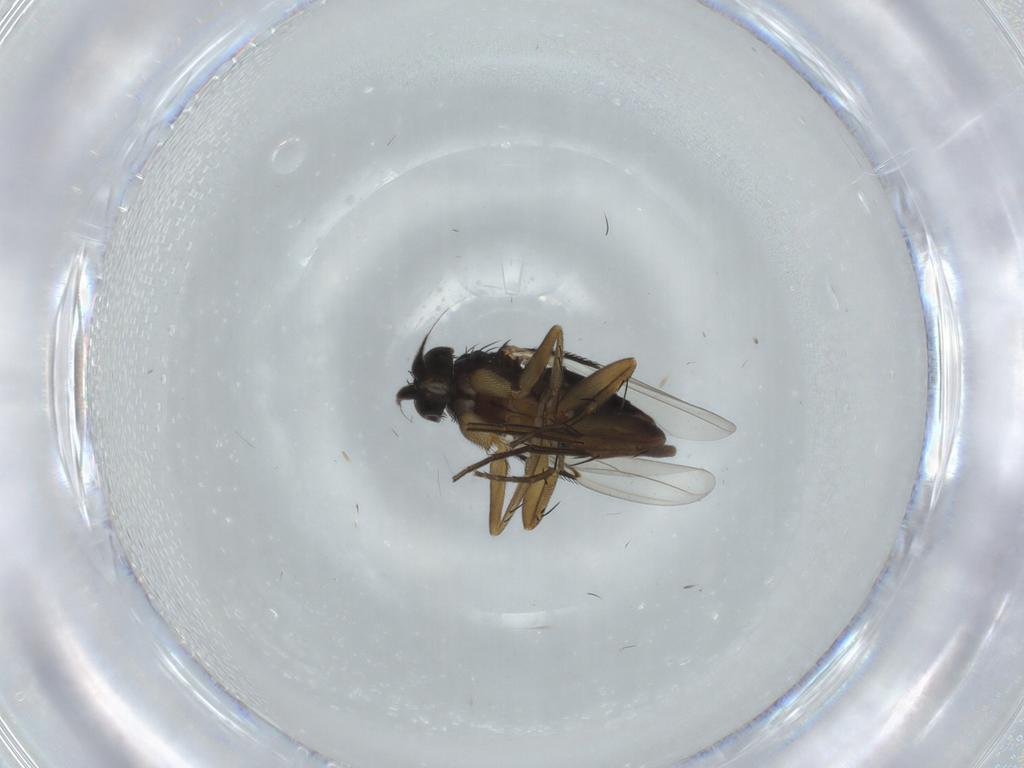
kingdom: Animalia
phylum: Arthropoda
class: Insecta
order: Diptera
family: Phoridae
